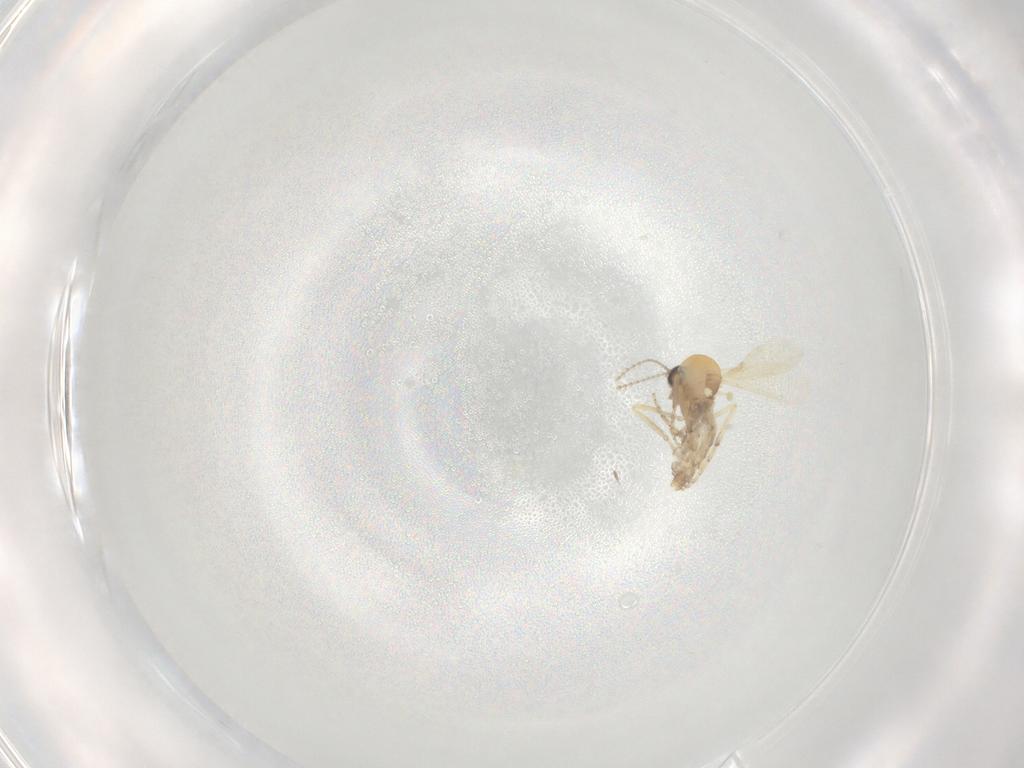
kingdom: Animalia
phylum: Arthropoda
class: Insecta
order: Diptera
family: Ceratopogonidae
